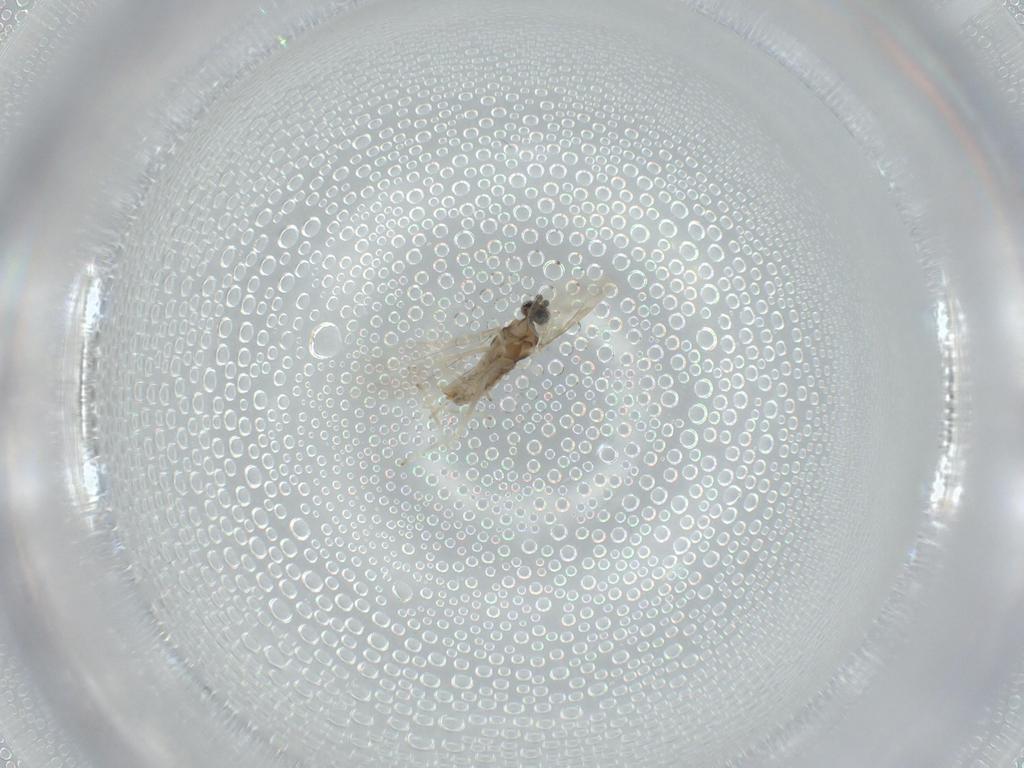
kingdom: Animalia
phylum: Arthropoda
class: Insecta
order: Diptera
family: Cecidomyiidae
